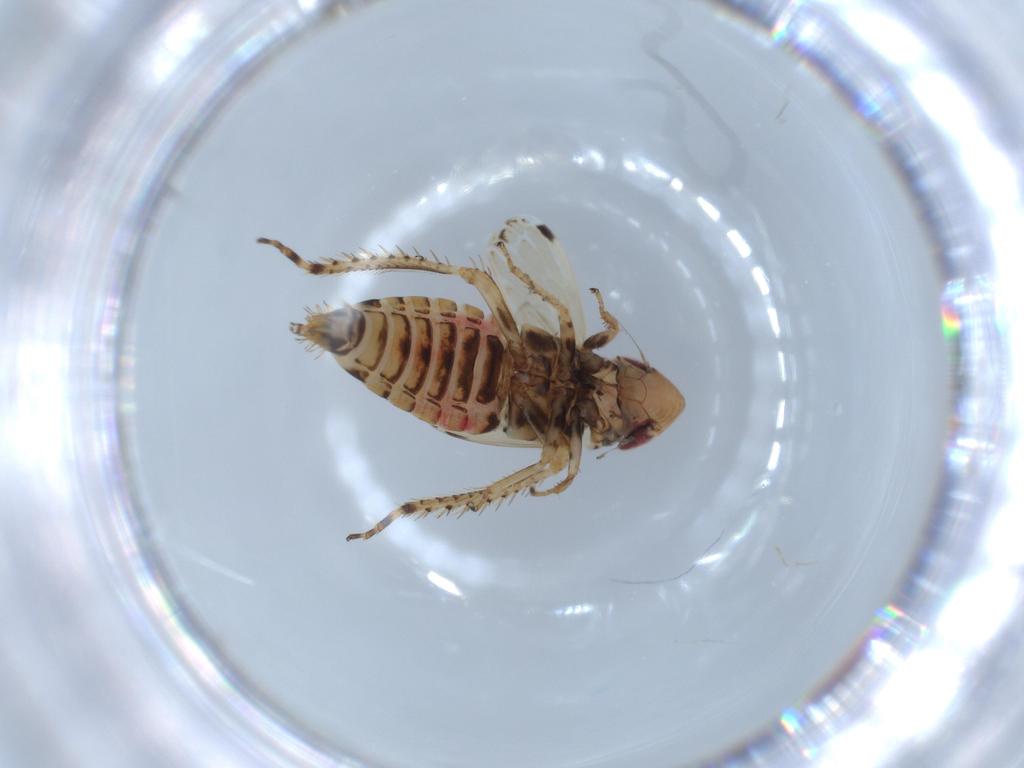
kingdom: Animalia
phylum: Arthropoda
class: Insecta
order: Hemiptera
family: Cicadellidae
